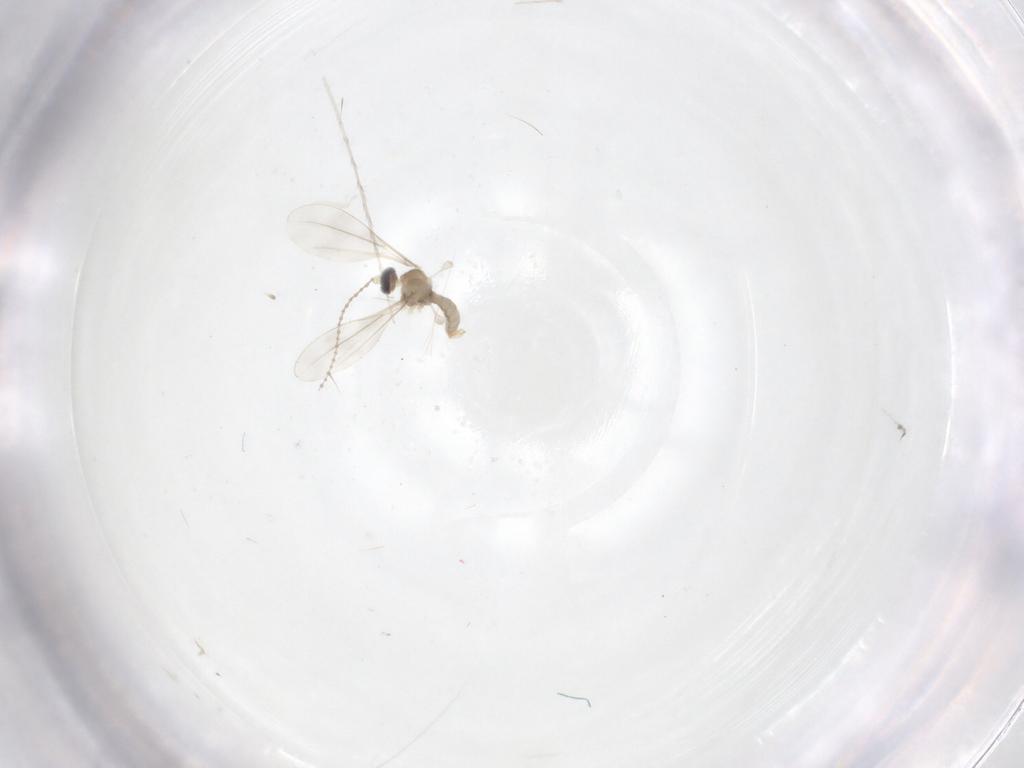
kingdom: Animalia
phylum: Arthropoda
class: Insecta
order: Diptera
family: Cecidomyiidae
